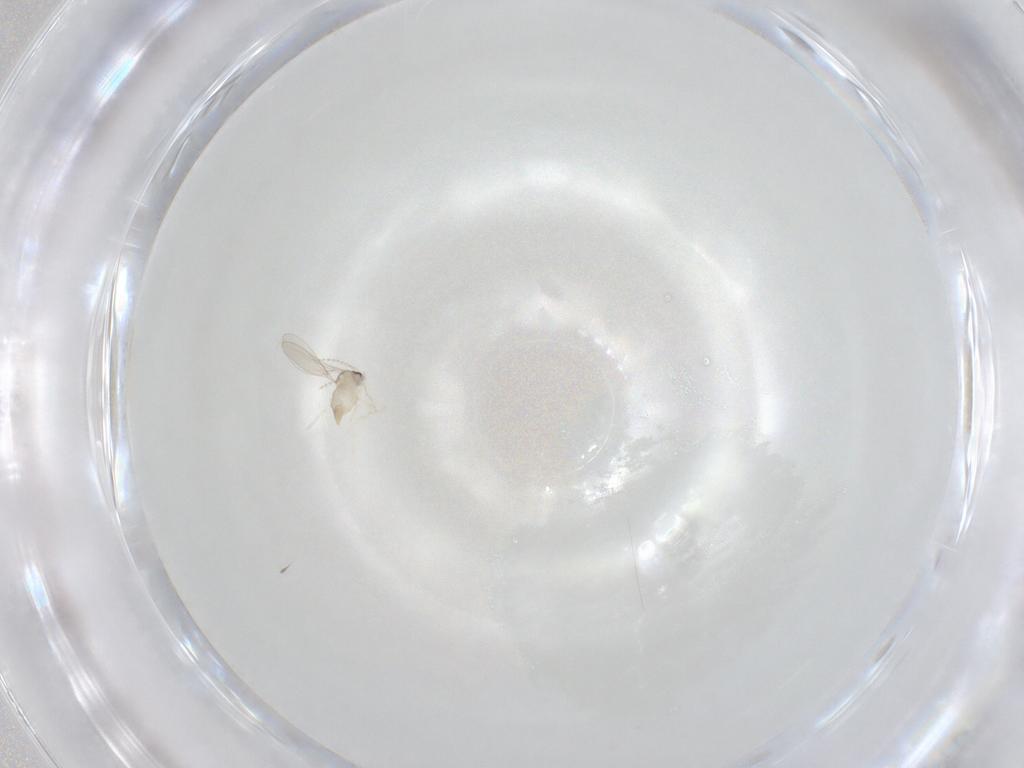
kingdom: Animalia
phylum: Arthropoda
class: Insecta
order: Diptera
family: Cecidomyiidae
